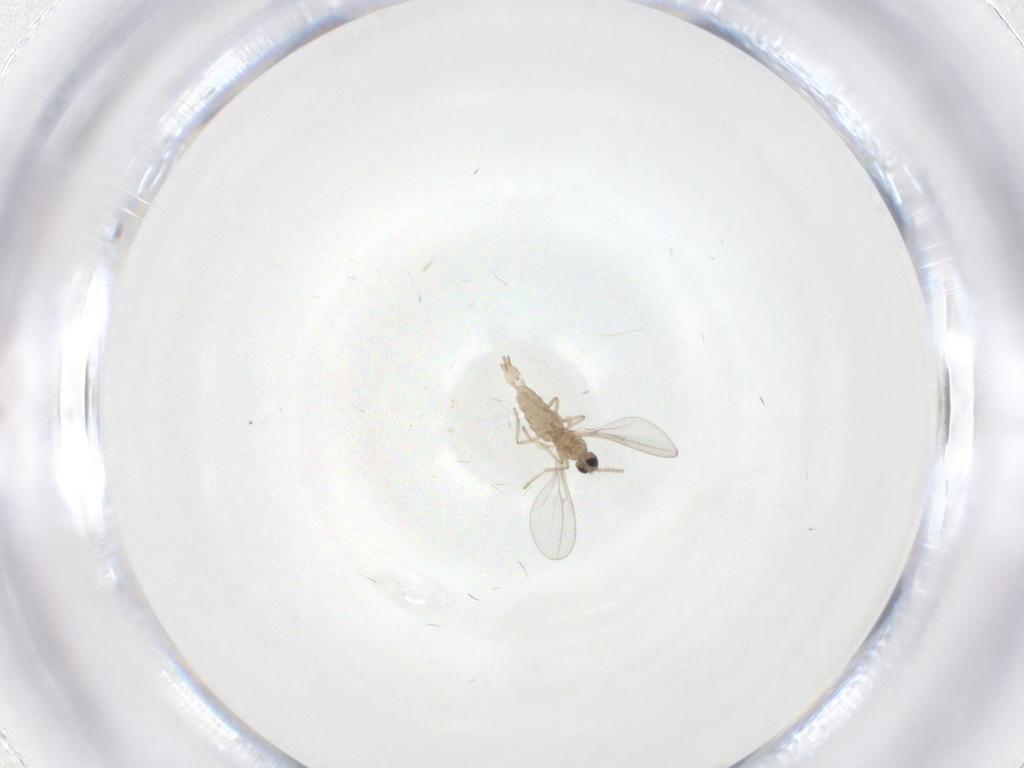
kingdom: Animalia
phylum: Arthropoda
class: Insecta
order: Diptera
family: Cecidomyiidae
